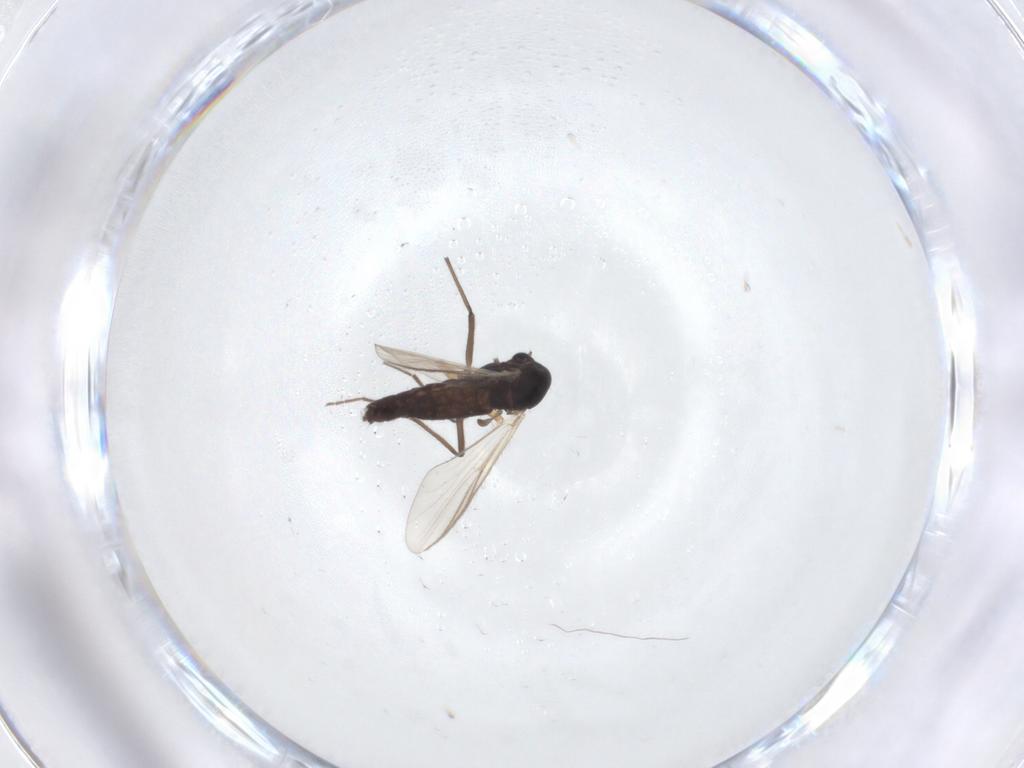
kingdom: Animalia
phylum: Arthropoda
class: Insecta
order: Diptera
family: Sciaridae
